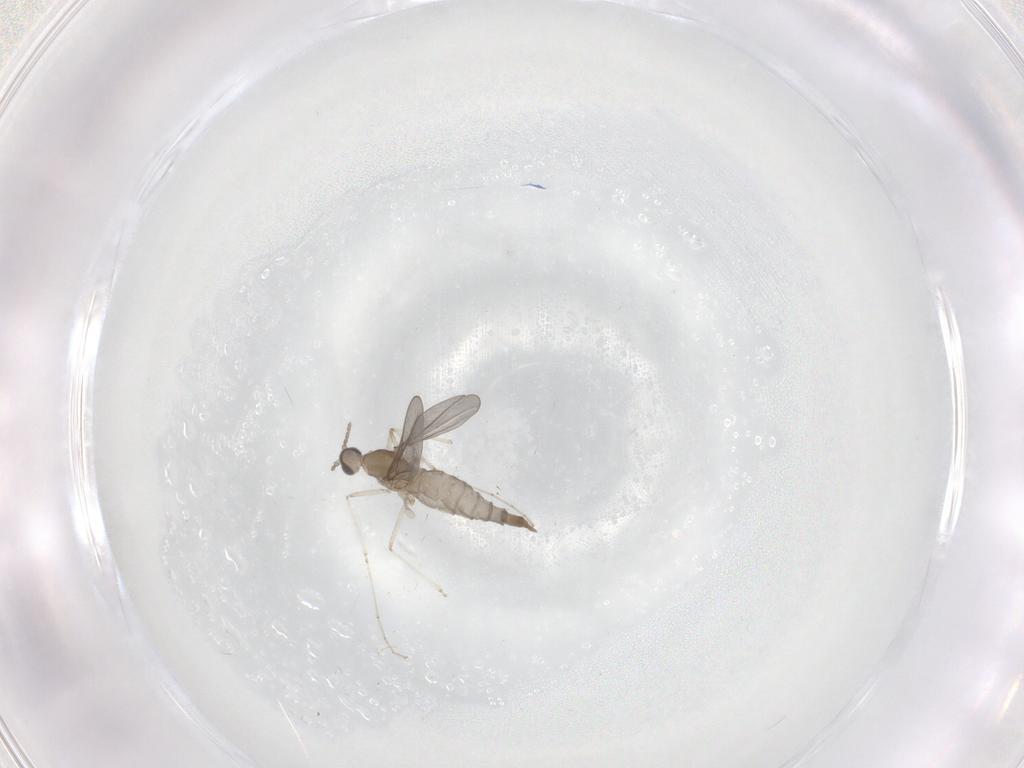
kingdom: Animalia
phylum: Arthropoda
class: Insecta
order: Diptera
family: Cecidomyiidae
